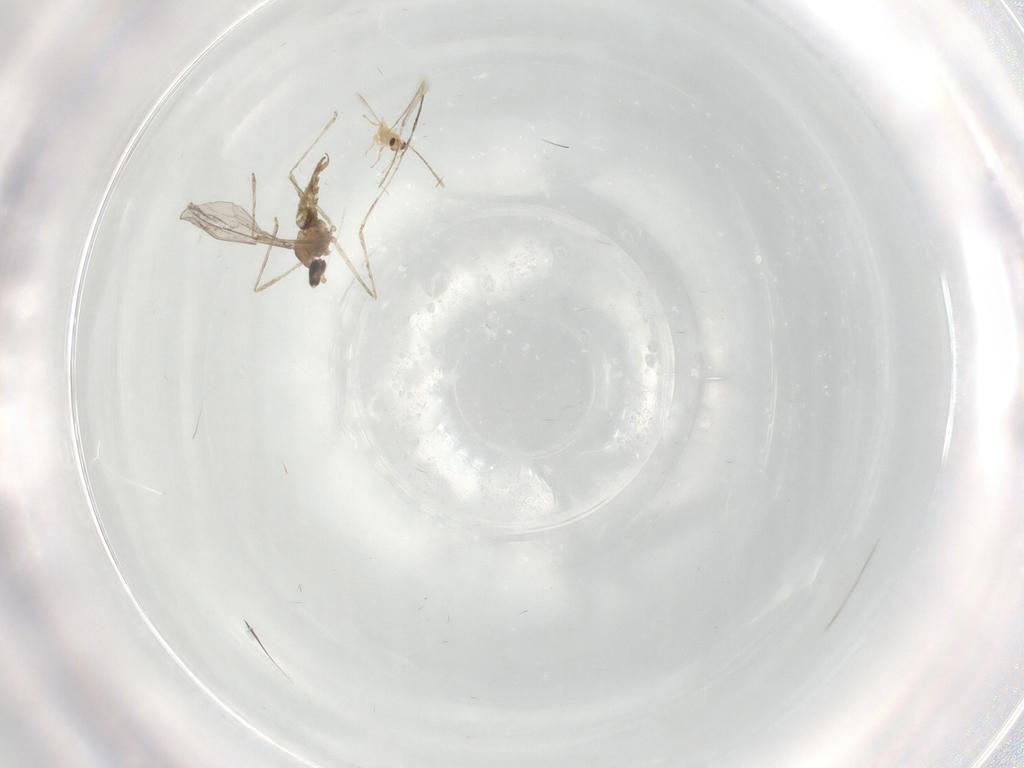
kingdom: Animalia
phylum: Arthropoda
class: Insecta
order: Diptera
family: Cecidomyiidae
